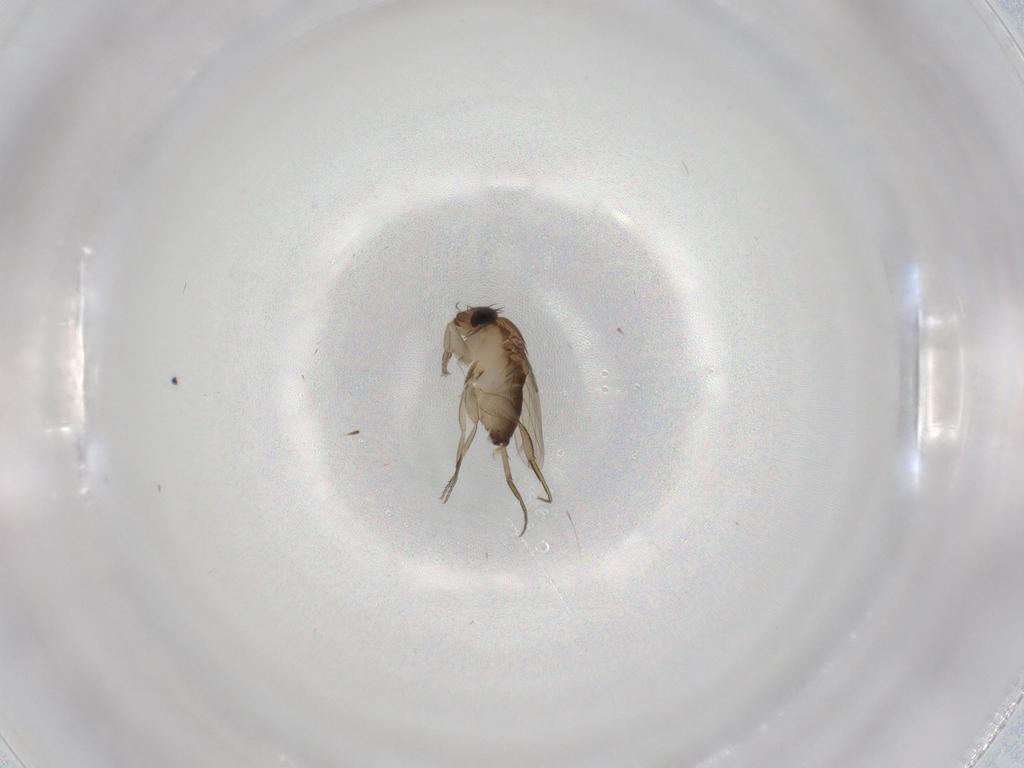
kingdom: Animalia
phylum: Arthropoda
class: Insecta
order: Diptera
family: Phoridae
